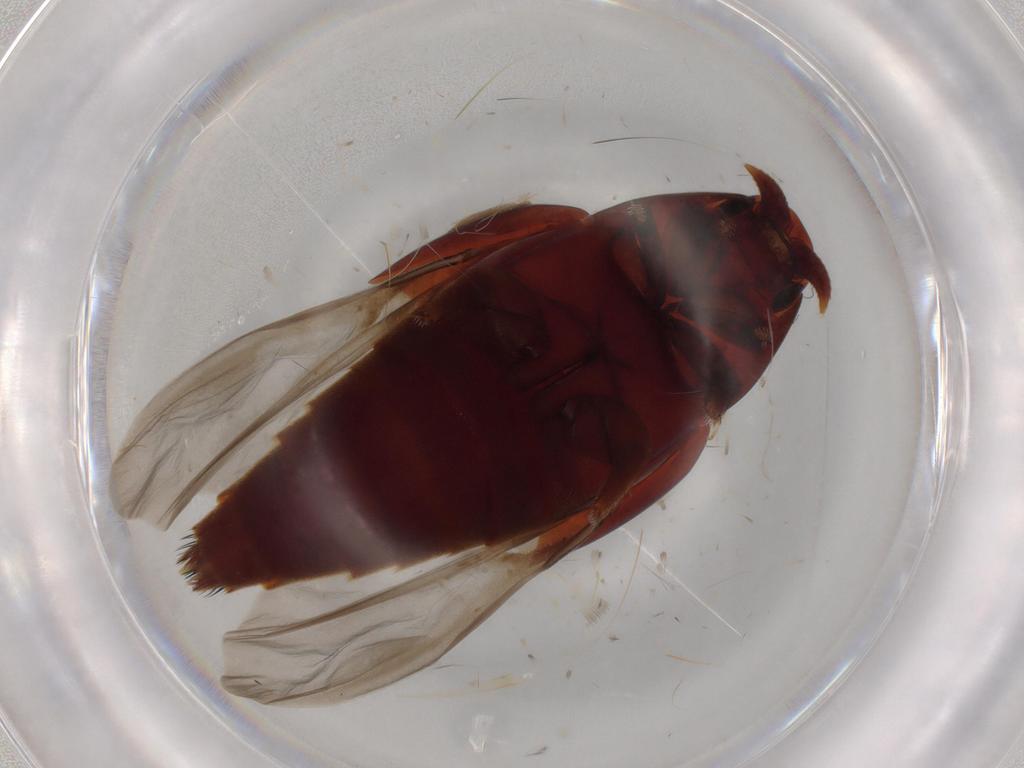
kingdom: Animalia
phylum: Arthropoda
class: Insecta
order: Coleoptera
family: Staphylinidae
